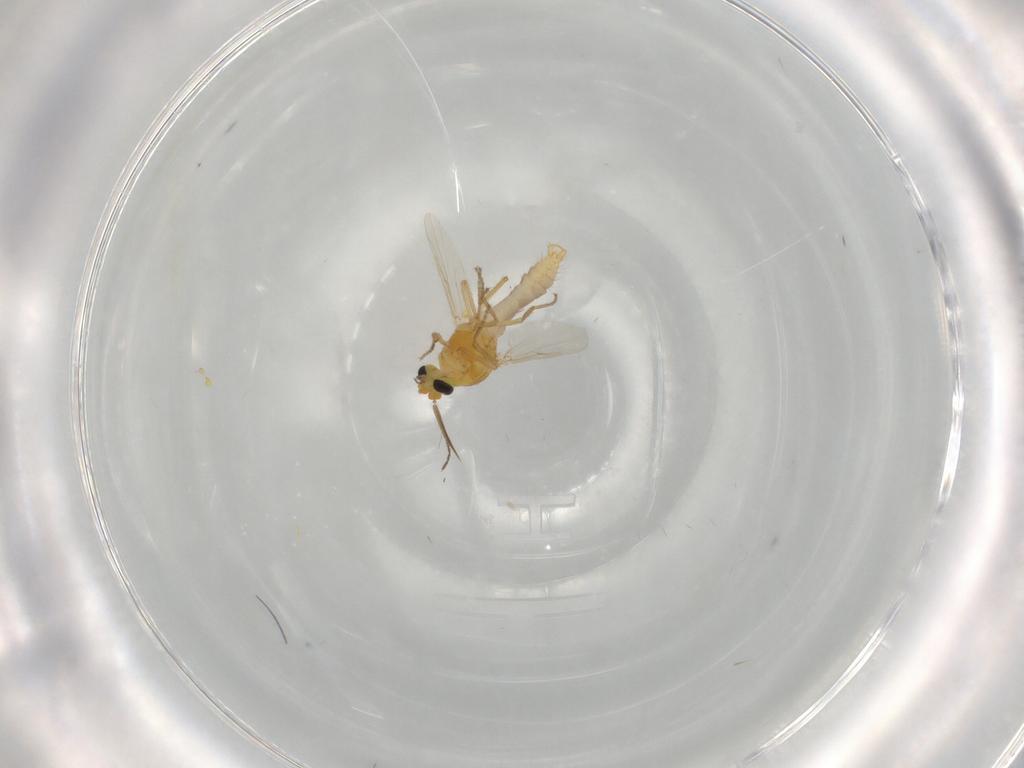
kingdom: Animalia
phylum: Arthropoda
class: Insecta
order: Diptera
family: Ceratopogonidae
